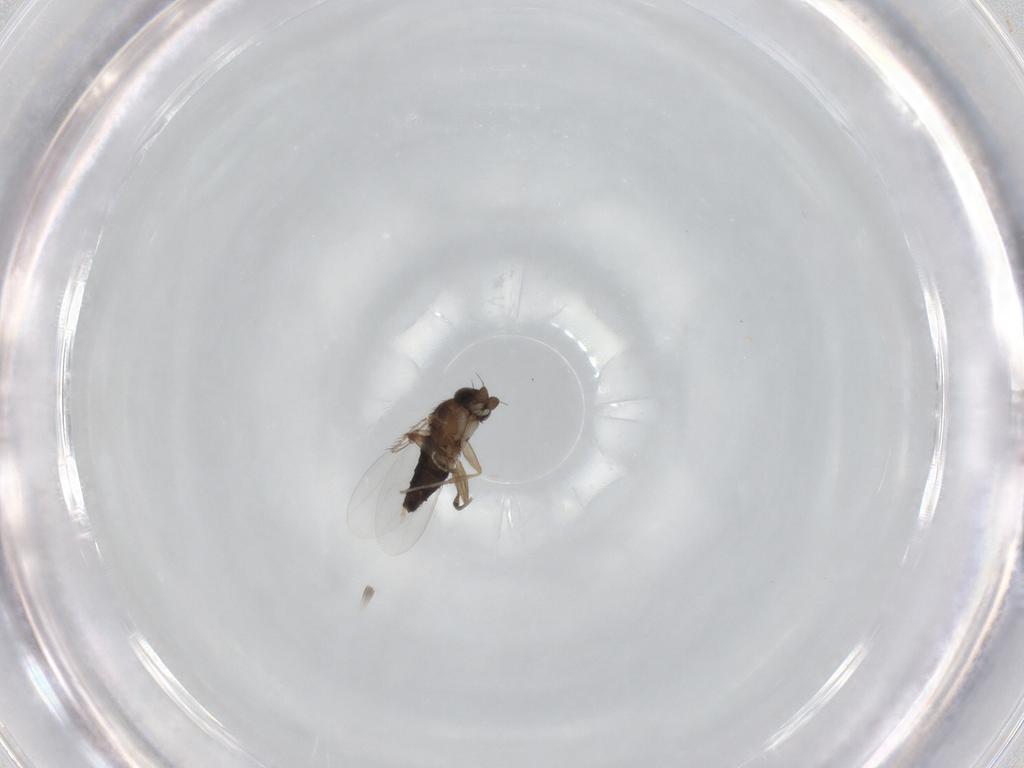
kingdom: Animalia
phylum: Arthropoda
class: Insecta
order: Diptera
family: Phoridae
